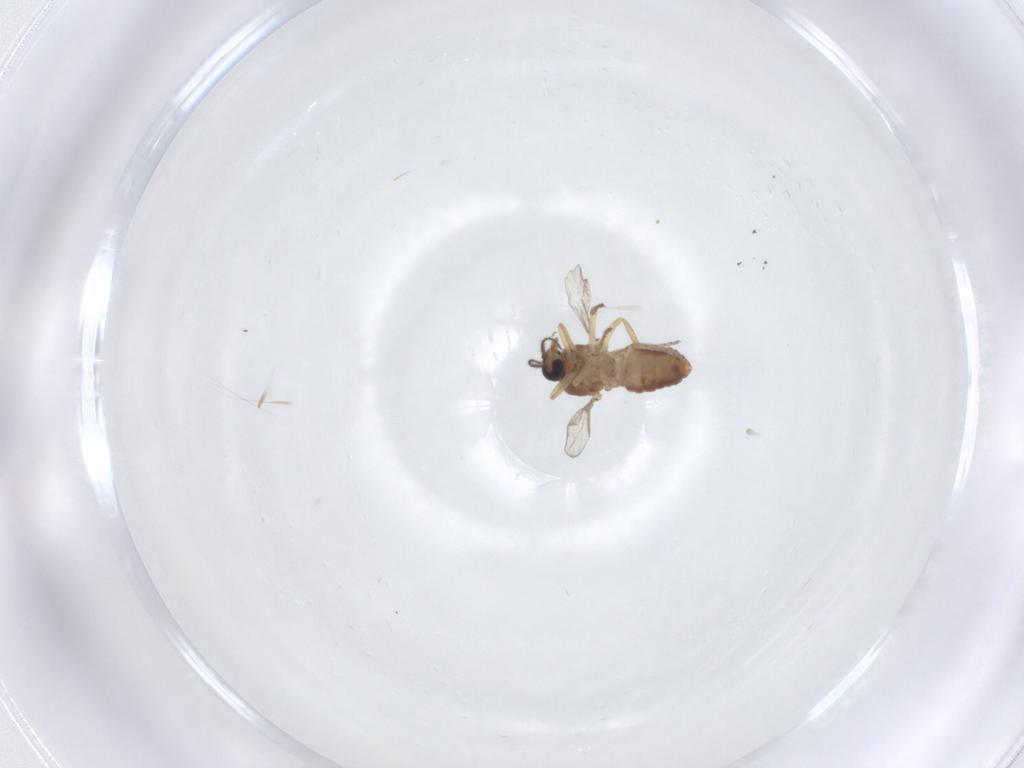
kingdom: Animalia
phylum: Arthropoda
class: Insecta
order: Diptera
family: Ceratopogonidae
